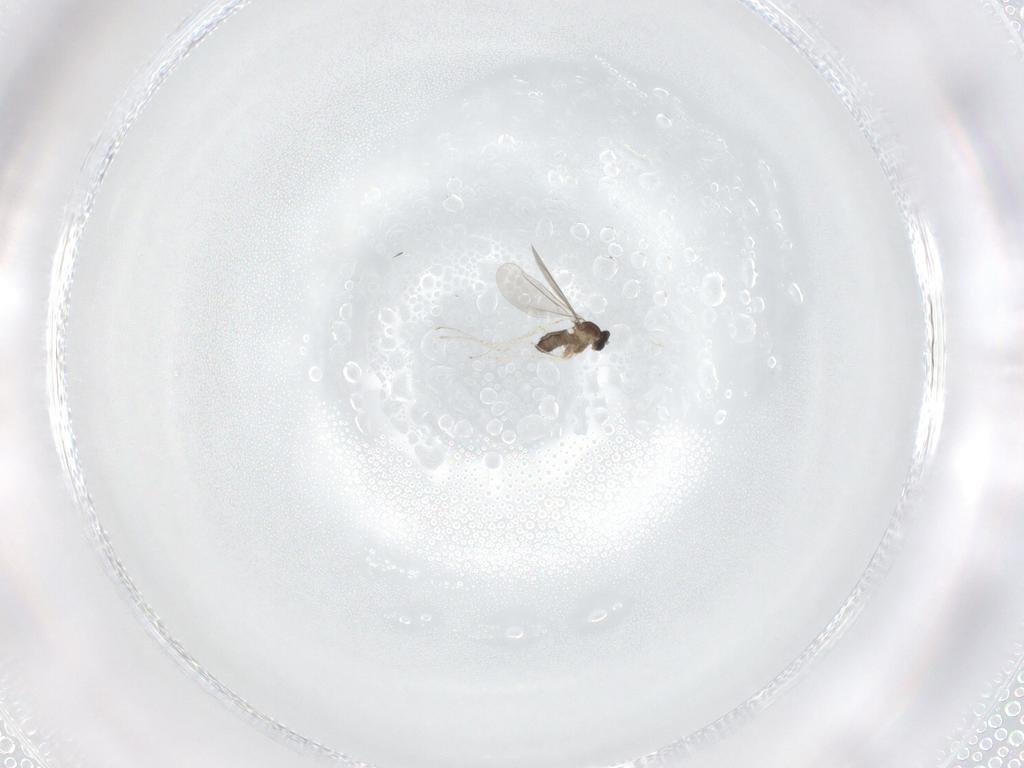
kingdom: Animalia
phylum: Arthropoda
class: Insecta
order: Diptera
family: Cecidomyiidae
